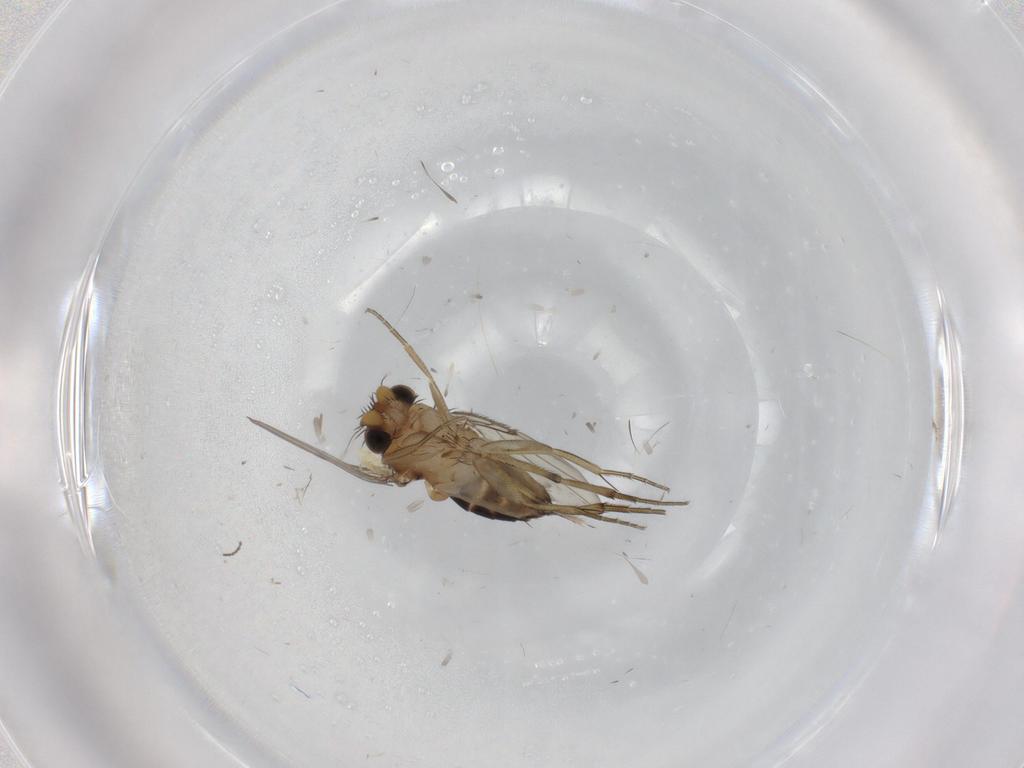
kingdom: Animalia
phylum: Arthropoda
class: Insecta
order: Diptera
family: Cecidomyiidae
